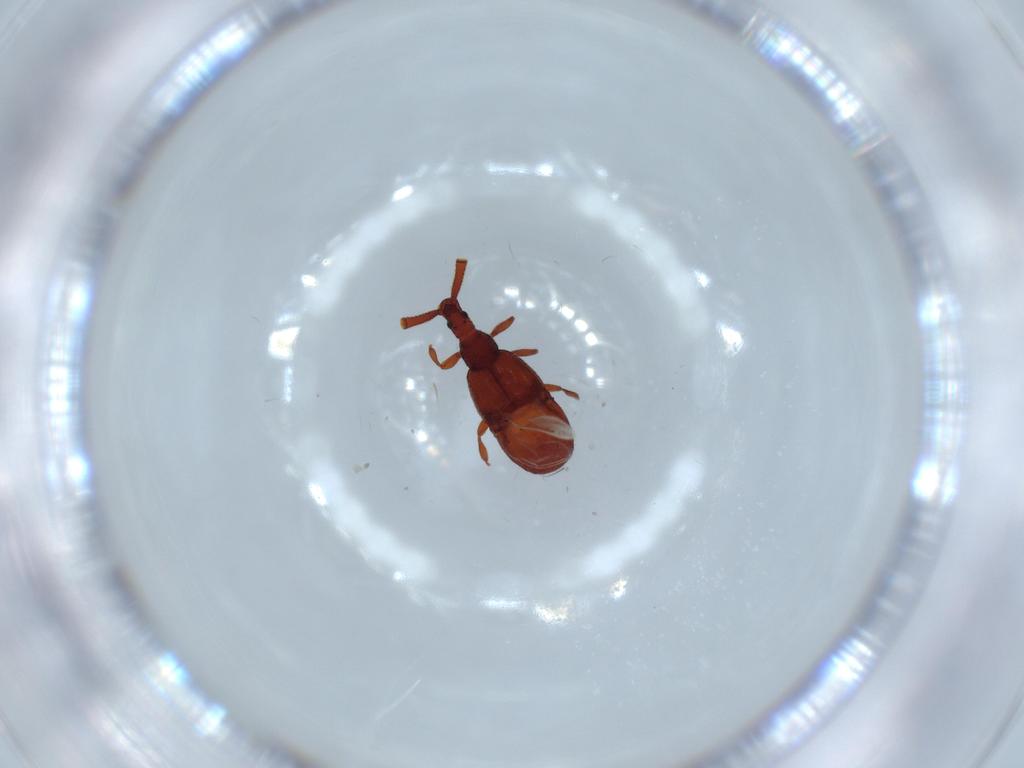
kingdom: Animalia
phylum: Arthropoda
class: Insecta
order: Coleoptera
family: Staphylinidae
